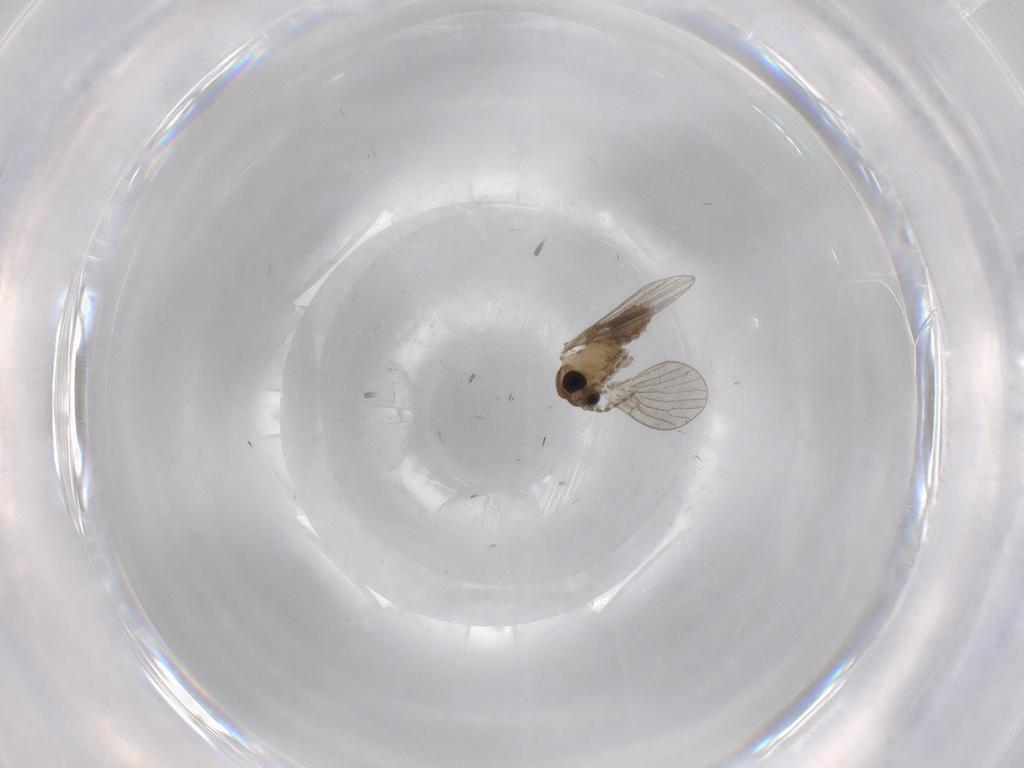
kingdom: Animalia
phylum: Arthropoda
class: Insecta
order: Diptera
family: Psychodidae
